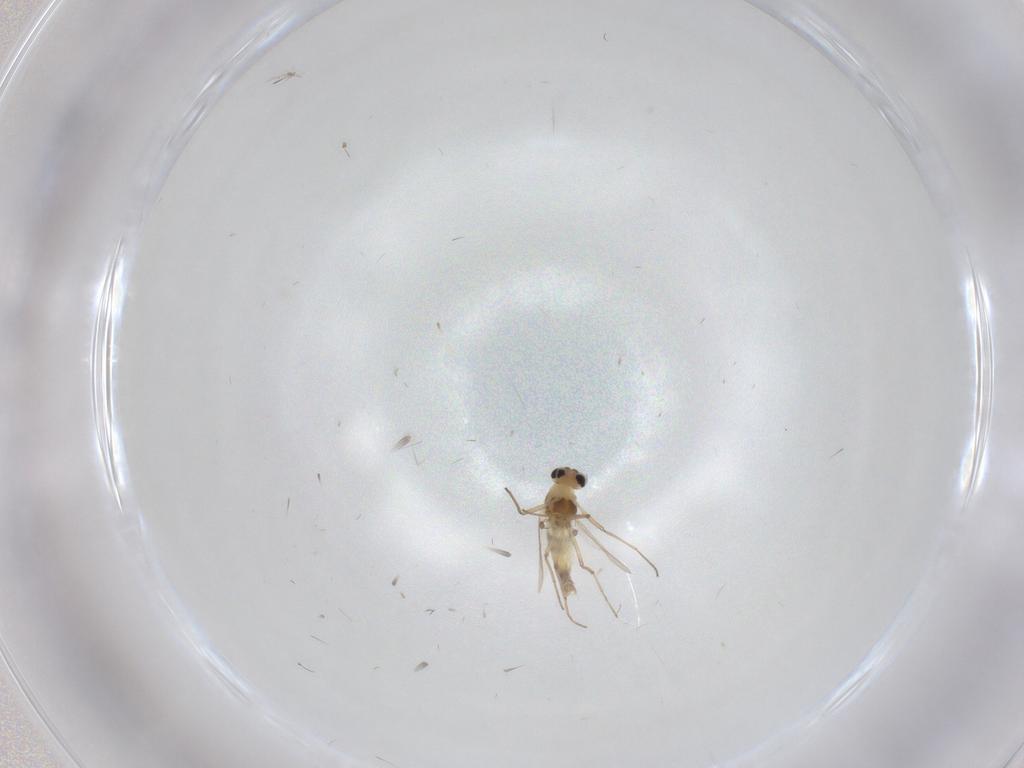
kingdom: Animalia
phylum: Arthropoda
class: Insecta
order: Diptera
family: Chironomidae
